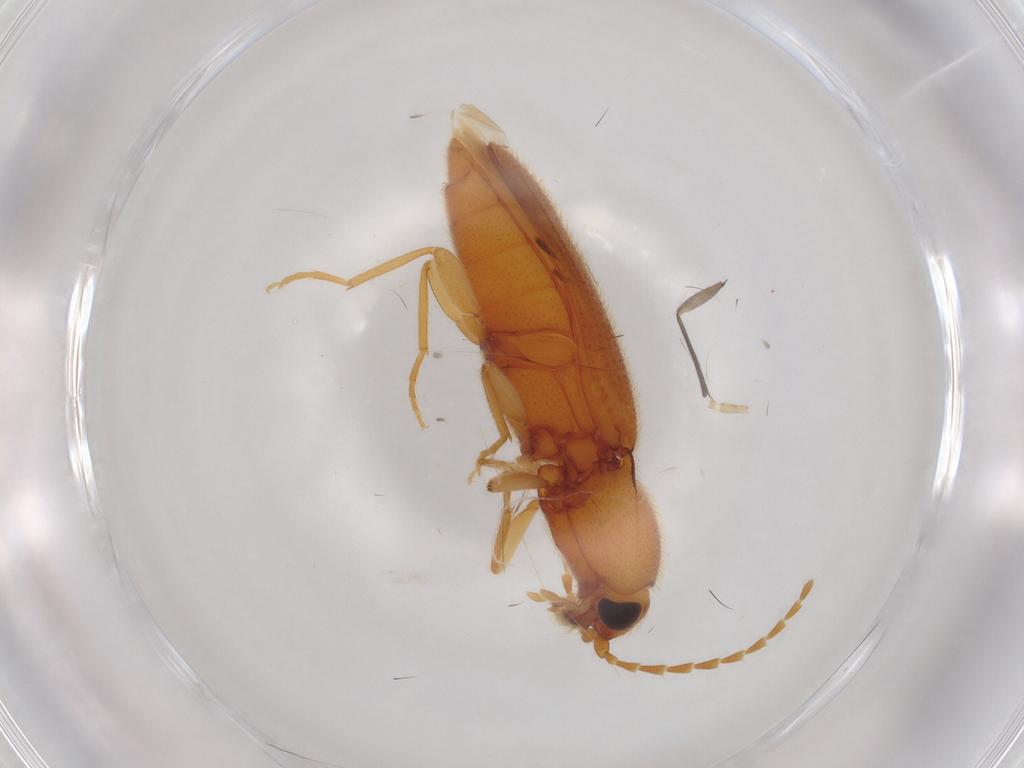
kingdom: Animalia
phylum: Arthropoda
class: Insecta
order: Coleoptera
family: Elateridae
